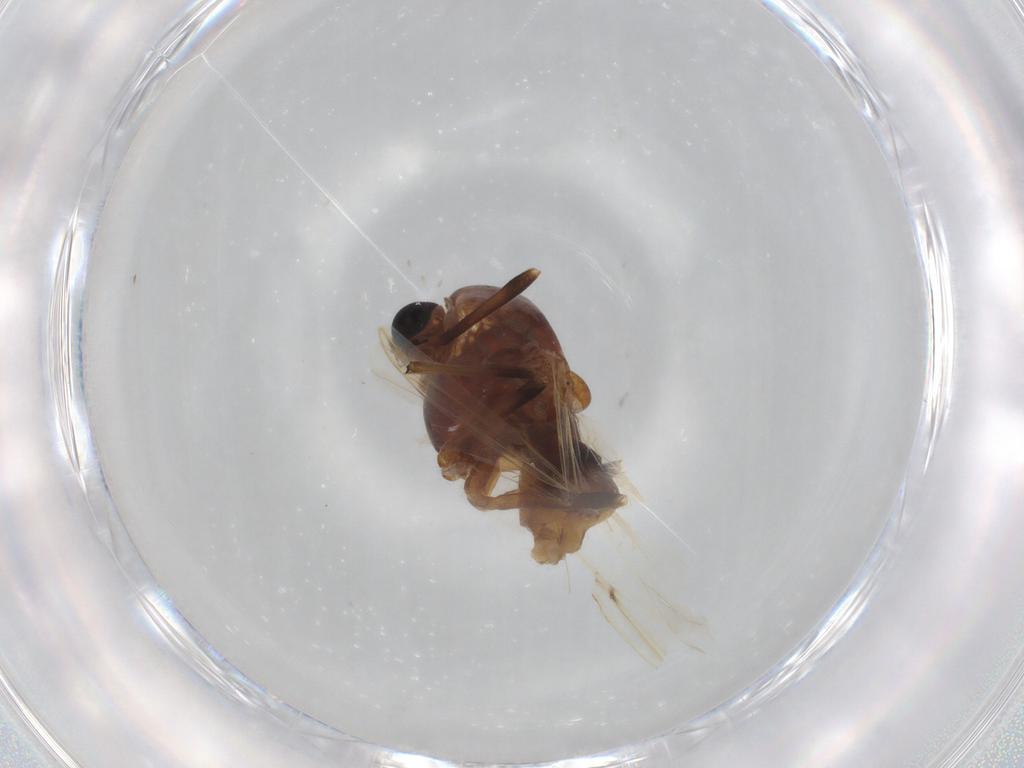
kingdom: Animalia
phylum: Arthropoda
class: Insecta
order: Diptera
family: Chironomidae
